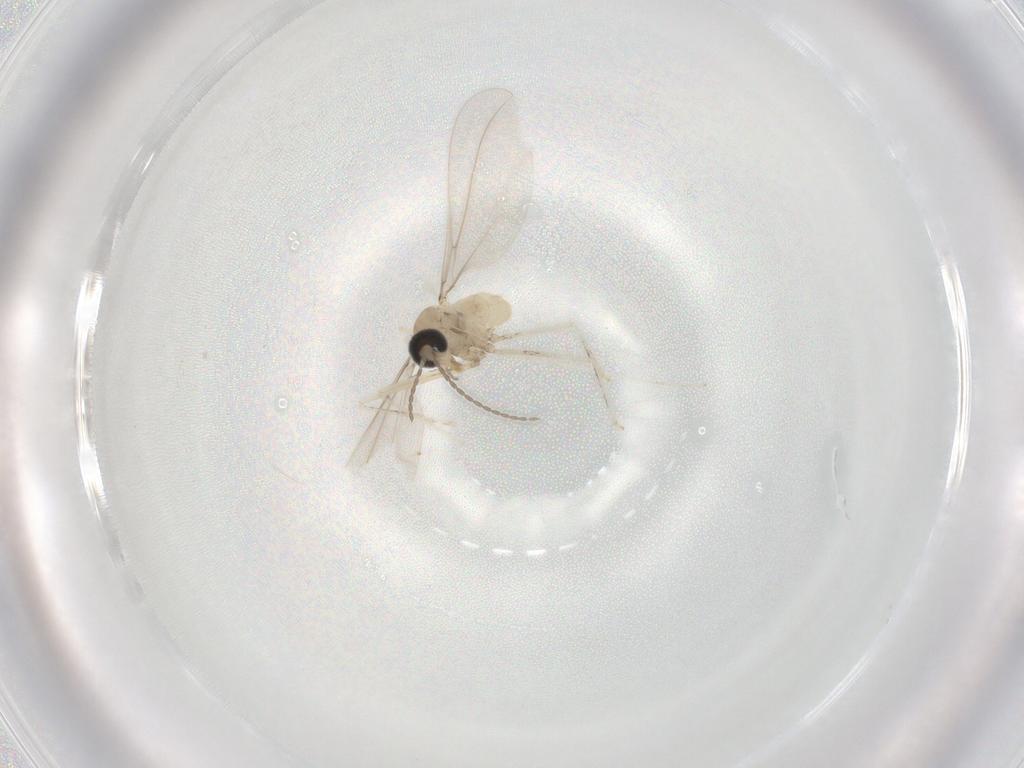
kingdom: Animalia
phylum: Arthropoda
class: Insecta
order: Diptera
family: Cecidomyiidae
